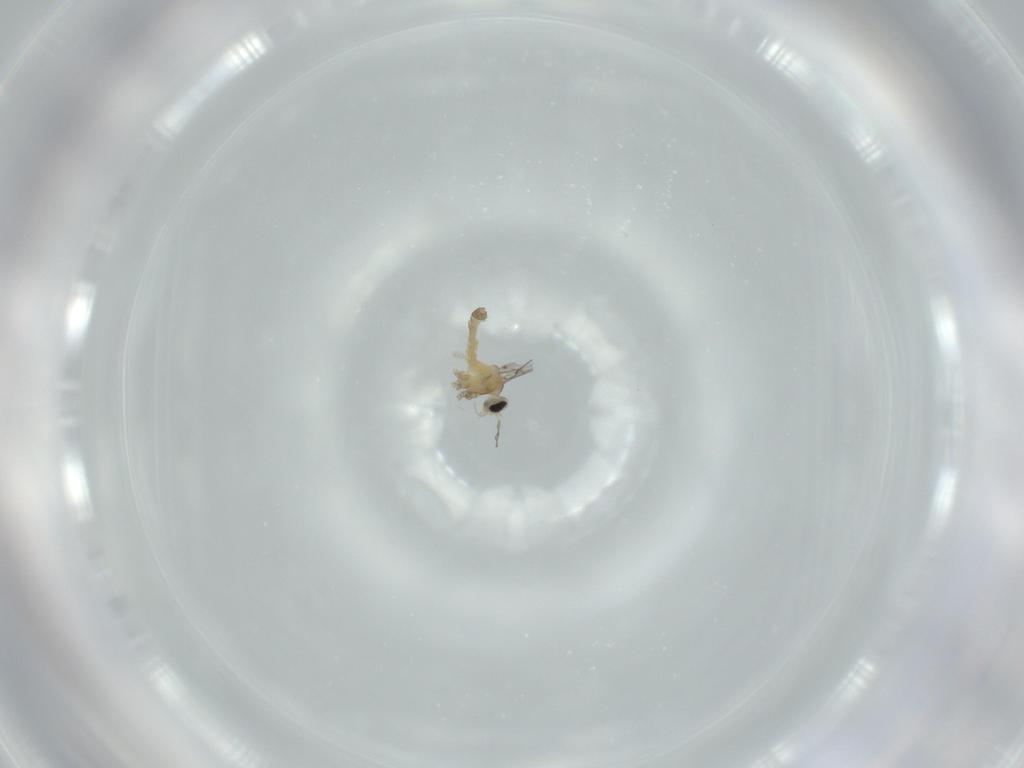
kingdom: Animalia
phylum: Arthropoda
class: Insecta
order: Diptera
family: Cecidomyiidae
